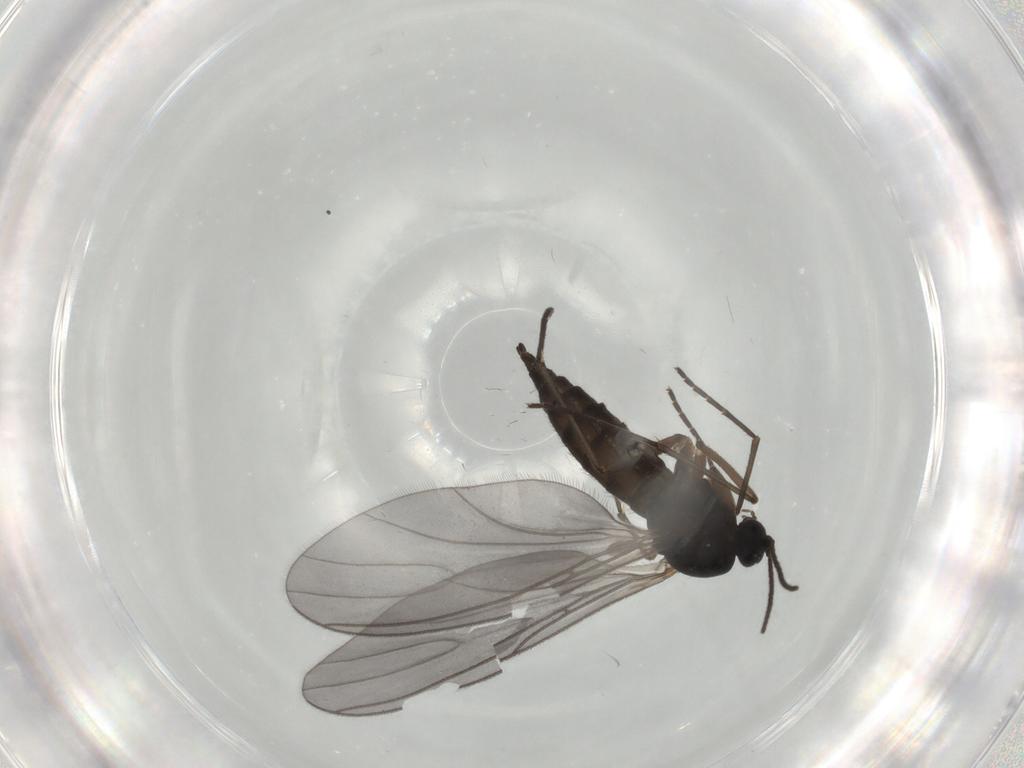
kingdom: Animalia
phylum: Arthropoda
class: Insecta
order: Diptera
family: Sciaridae
